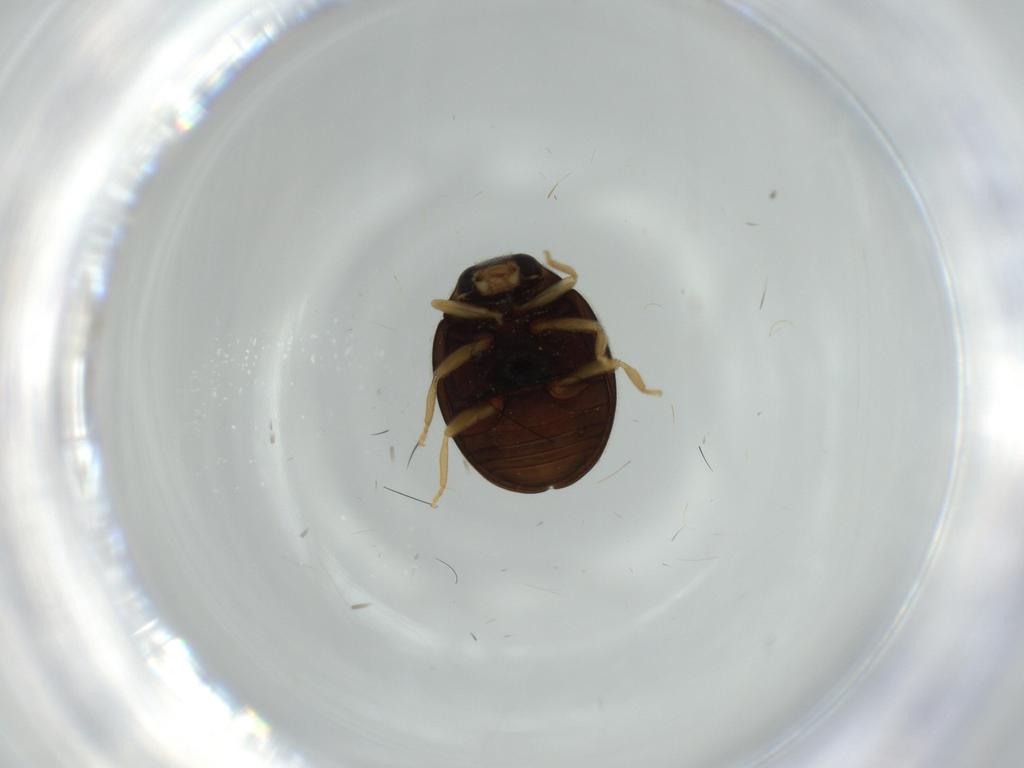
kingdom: Animalia
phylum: Arthropoda
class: Insecta
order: Coleoptera
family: Coccinellidae
